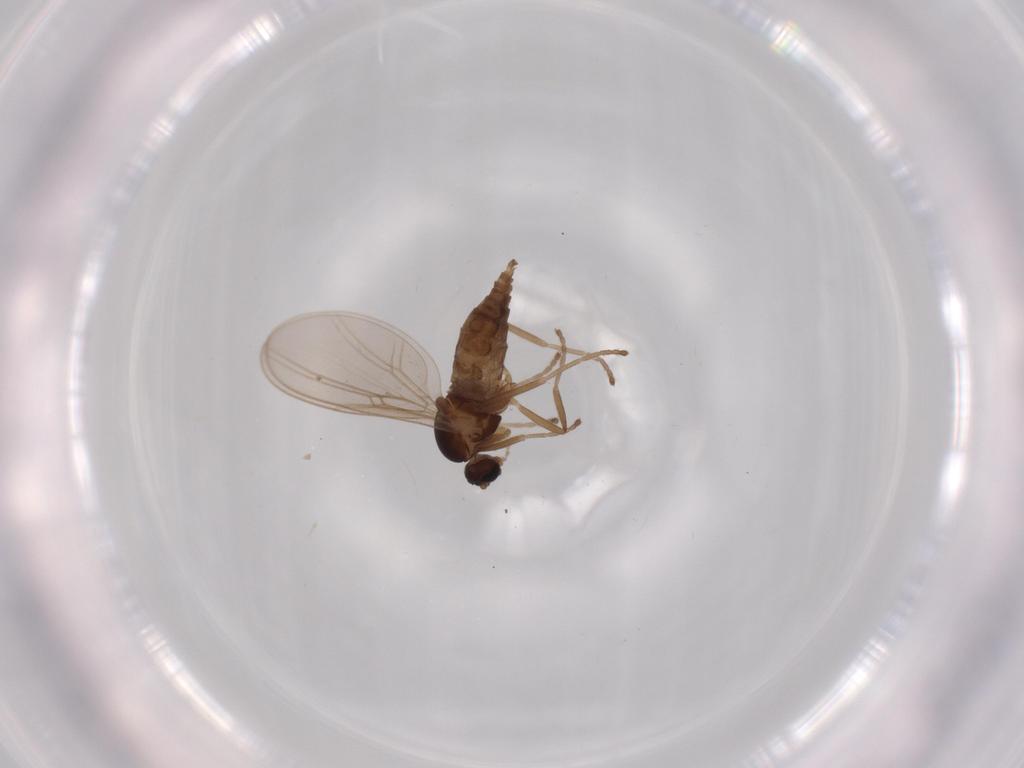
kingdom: Animalia
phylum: Arthropoda
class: Insecta
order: Diptera
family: Cecidomyiidae
